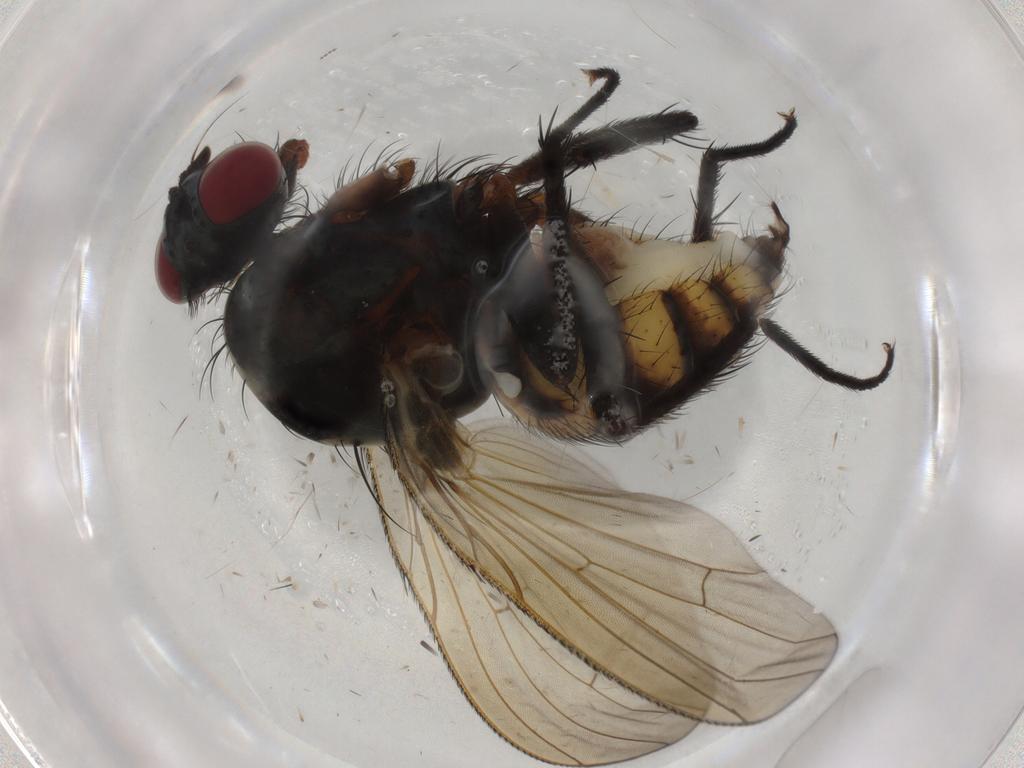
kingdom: Animalia
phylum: Arthropoda
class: Insecta
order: Diptera
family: Anthomyiidae
